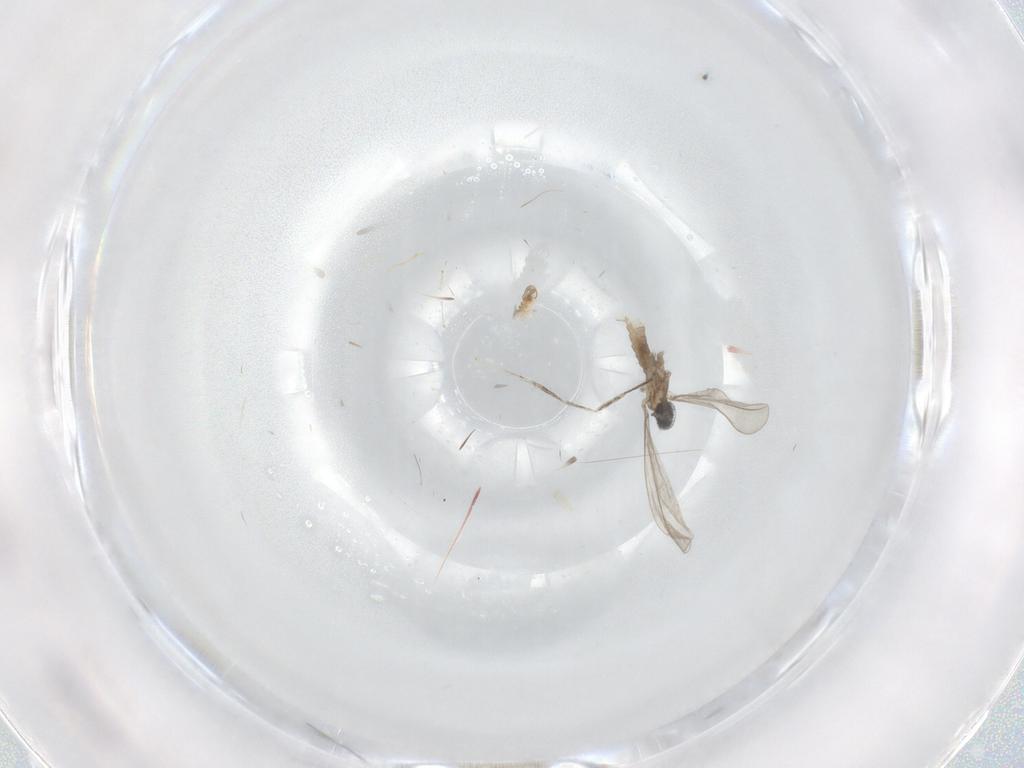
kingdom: Animalia
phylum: Arthropoda
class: Insecta
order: Diptera
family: Cecidomyiidae
